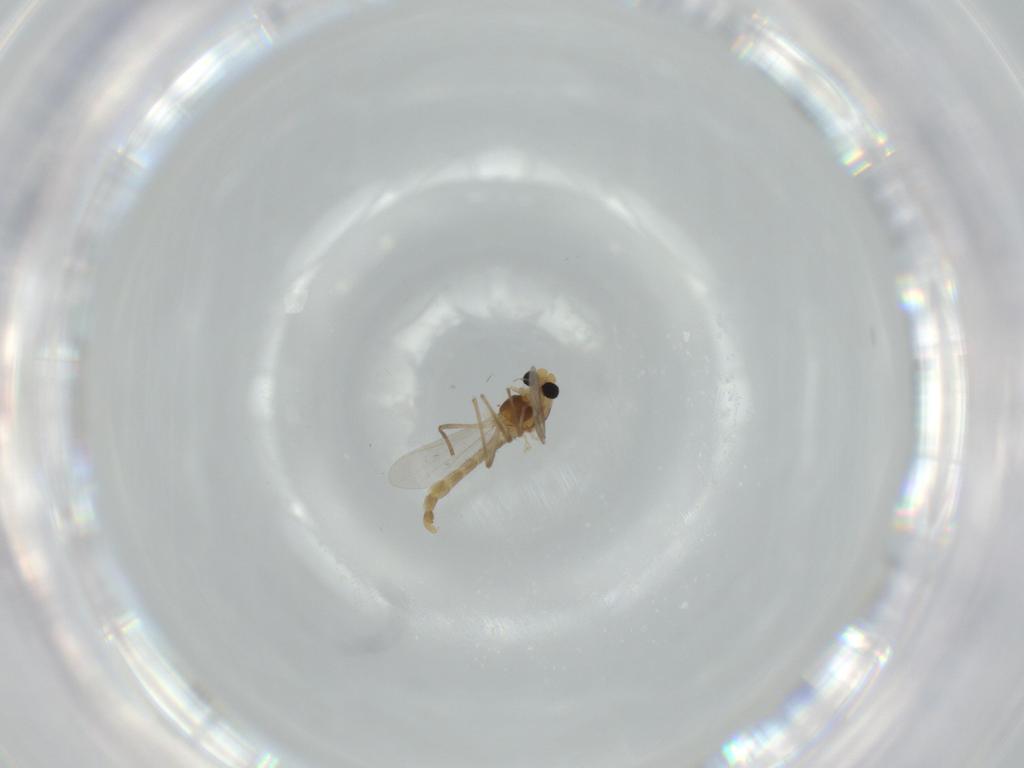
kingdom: Animalia
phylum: Arthropoda
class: Insecta
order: Diptera
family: Chironomidae
